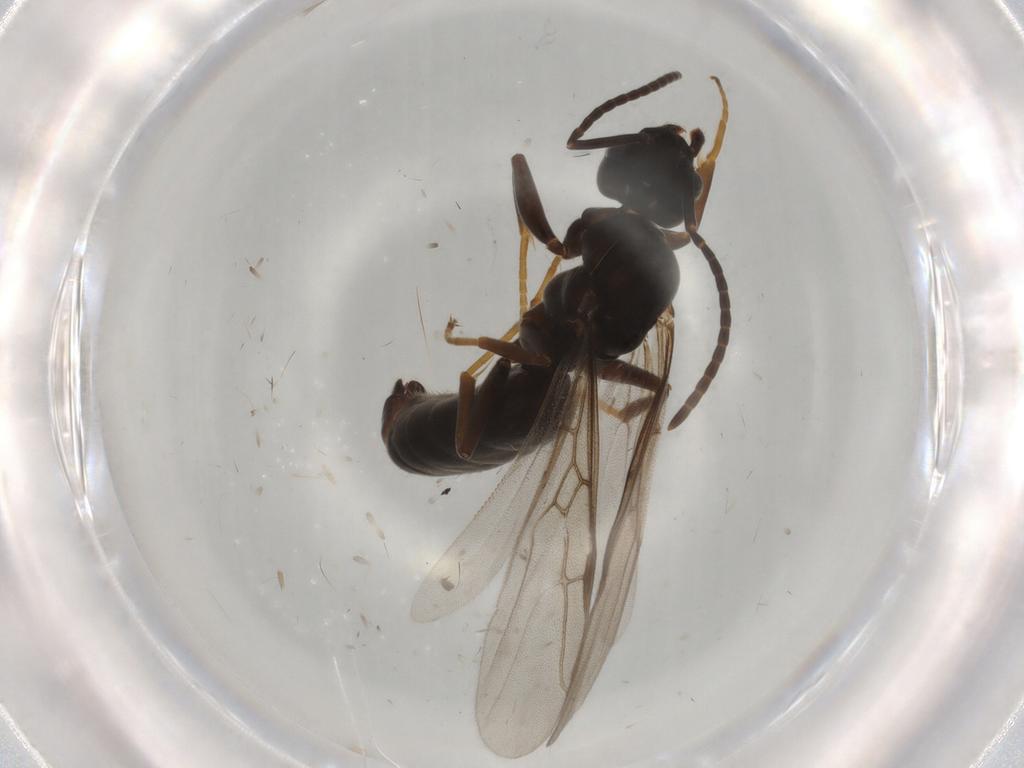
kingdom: Animalia
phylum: Arthropoda
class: Insecta
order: Hymenoptera
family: Formicidae
